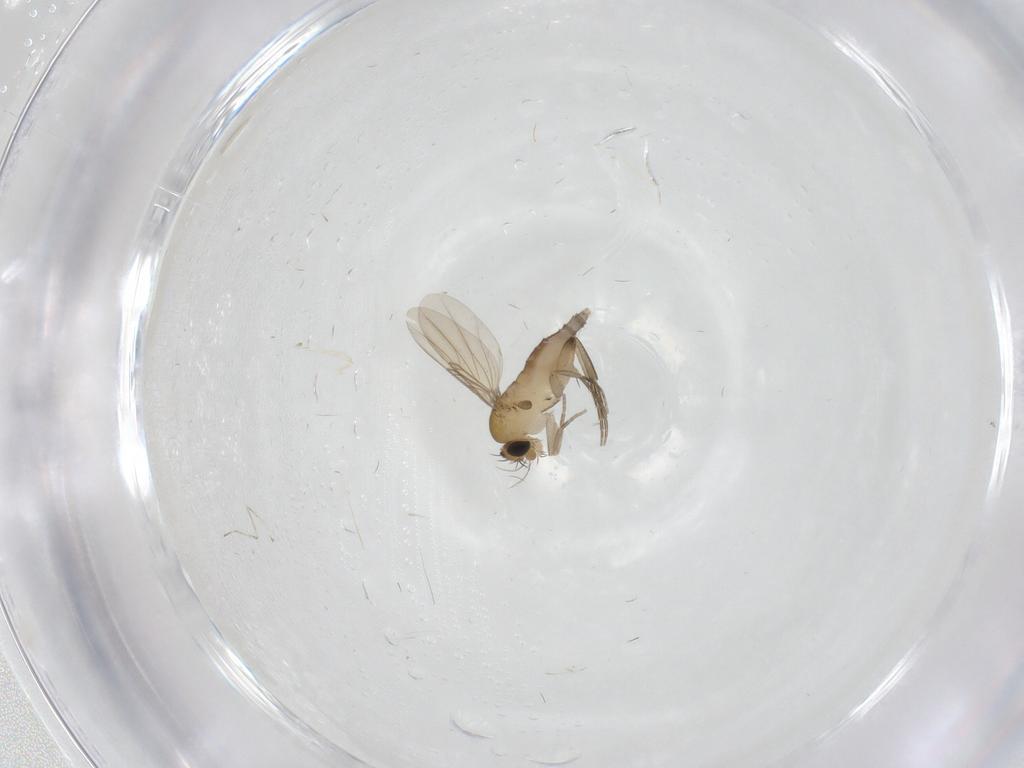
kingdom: Animalia
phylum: Arthropoda
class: Insecta
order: Diptera
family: Phoridae
